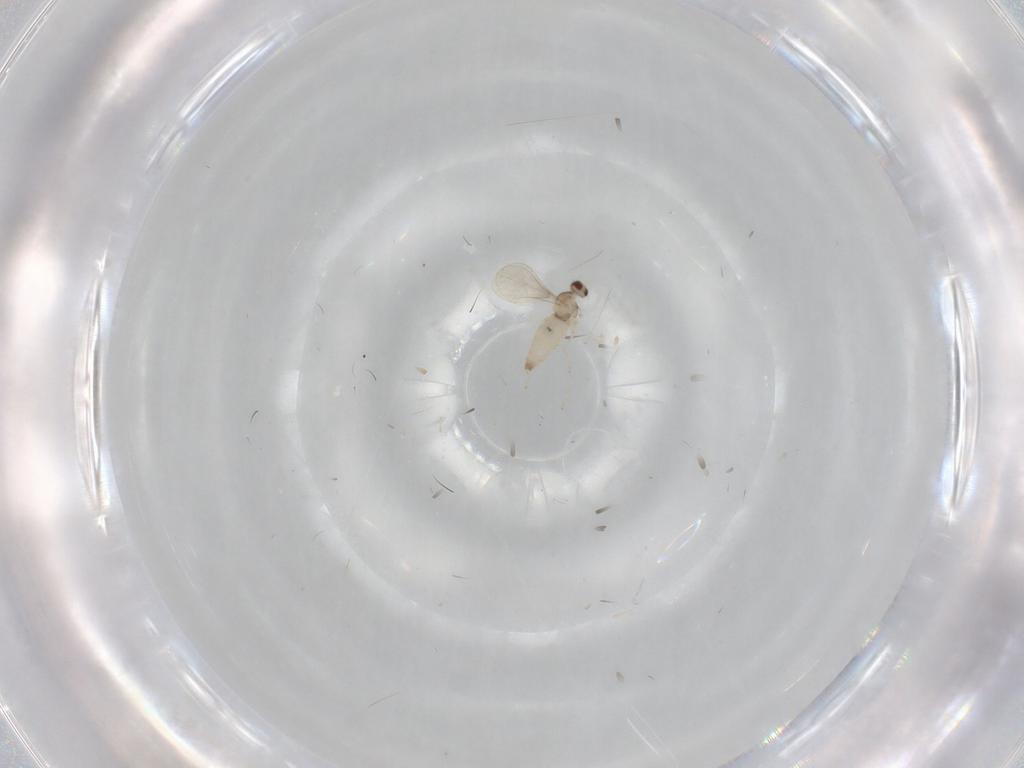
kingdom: Animalia
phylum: Arthropoda
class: Insecta
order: Diptera
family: Cecidomyiidae
